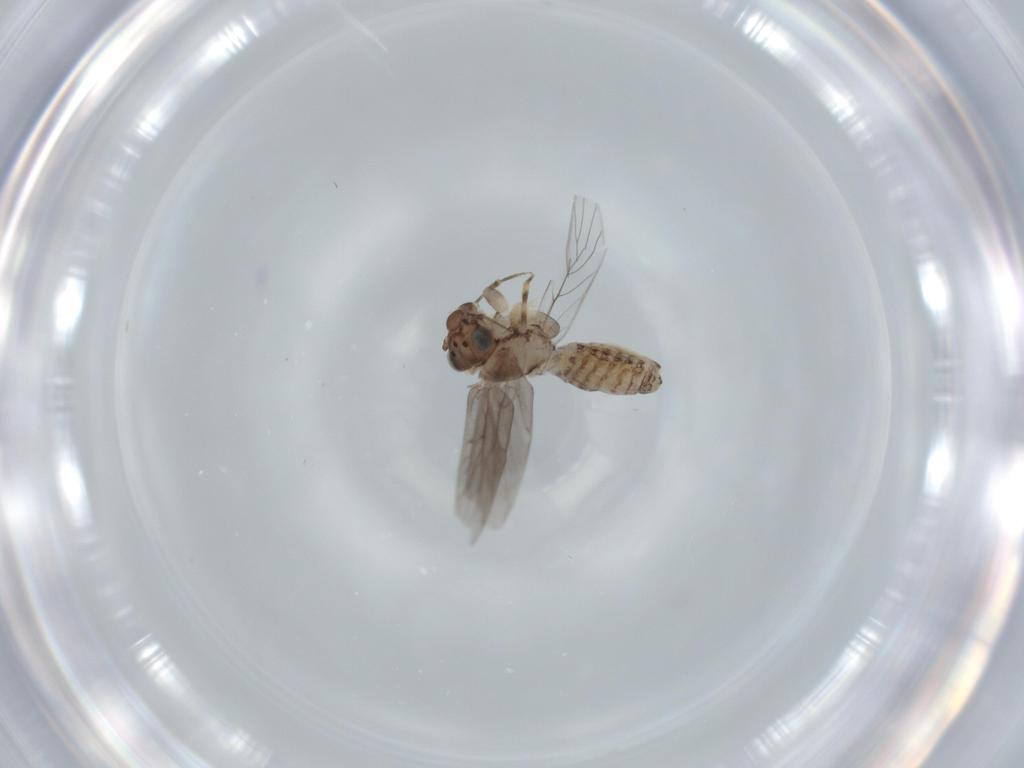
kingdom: Animalia
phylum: Arthropoda
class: Insecta
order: Psocodea
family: Lepidopsocidae
